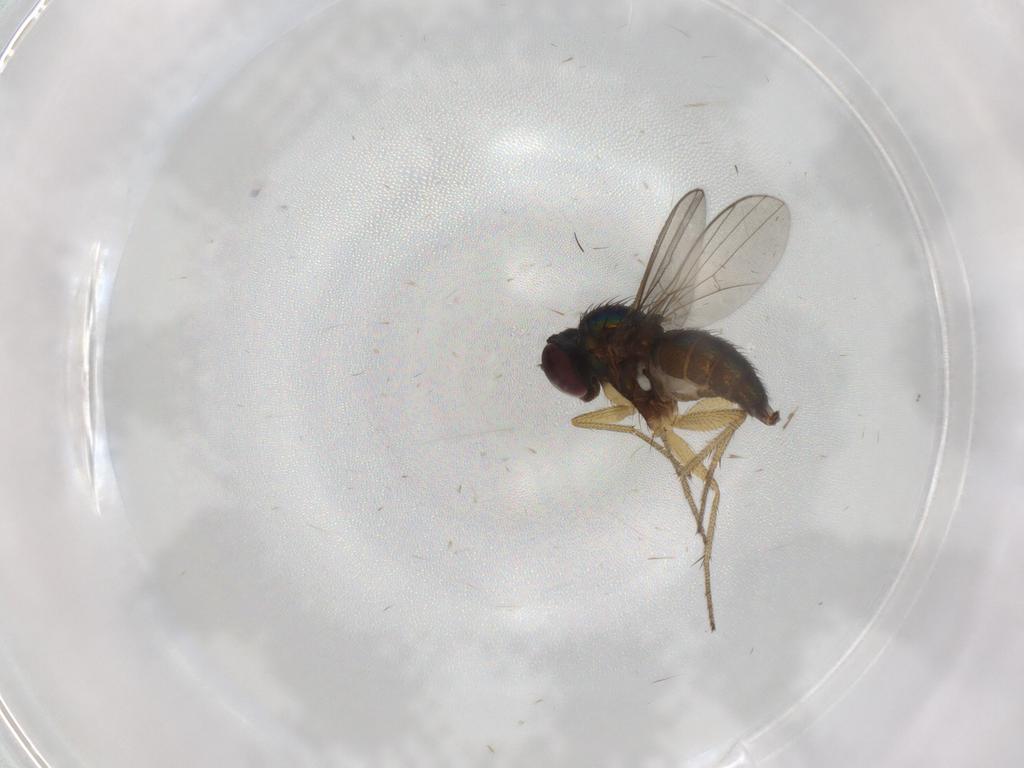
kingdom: Animalia
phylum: Arthropoda
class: Insecta
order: Diptera
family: Dolichopodidae
